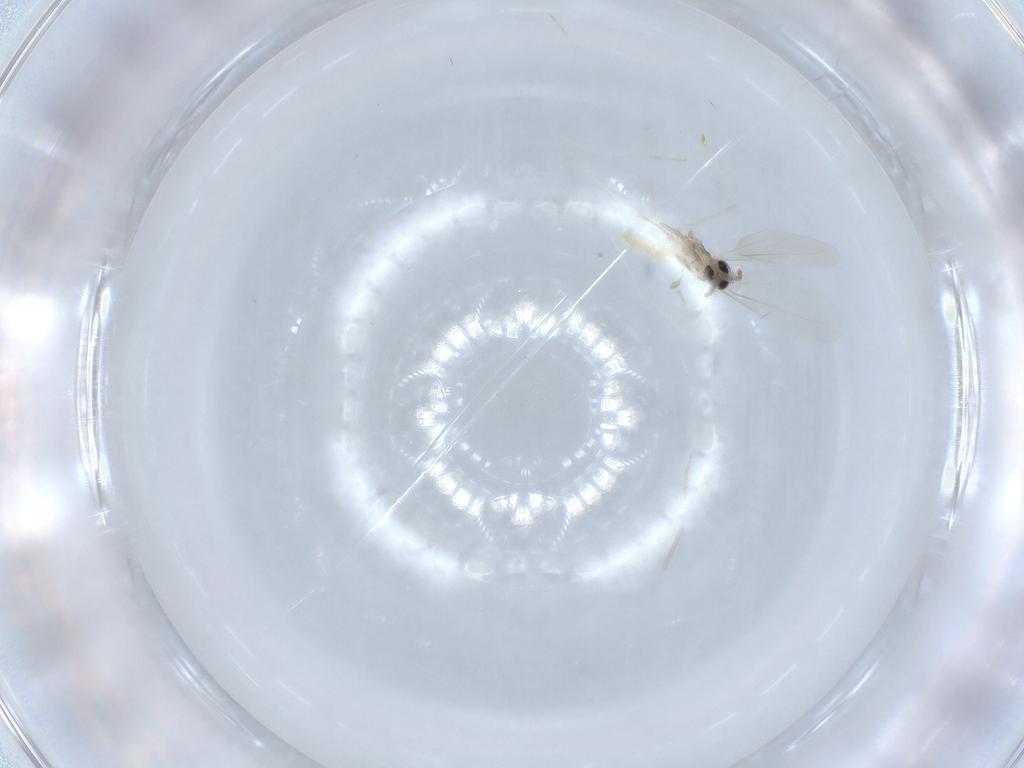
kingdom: Animalia
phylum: Arthropoda
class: Insecta
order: Diptera
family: Cecidomyiidae
